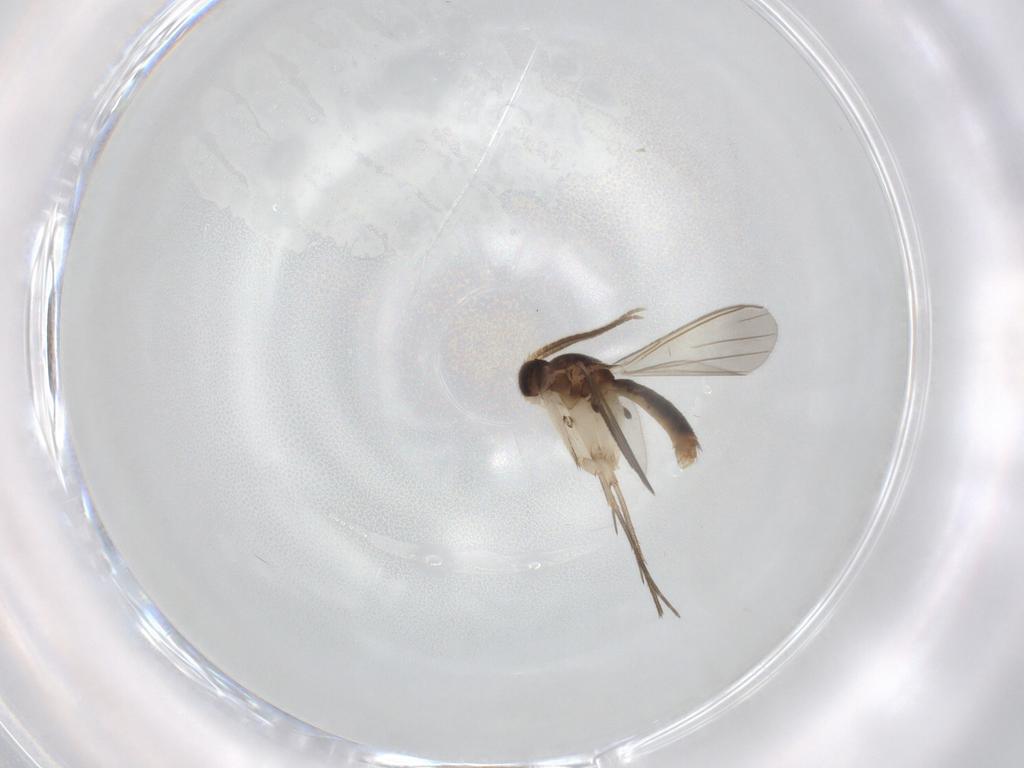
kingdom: Animalia
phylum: Arthropoda
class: Insecta
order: Diptera
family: Mycetophilidae
